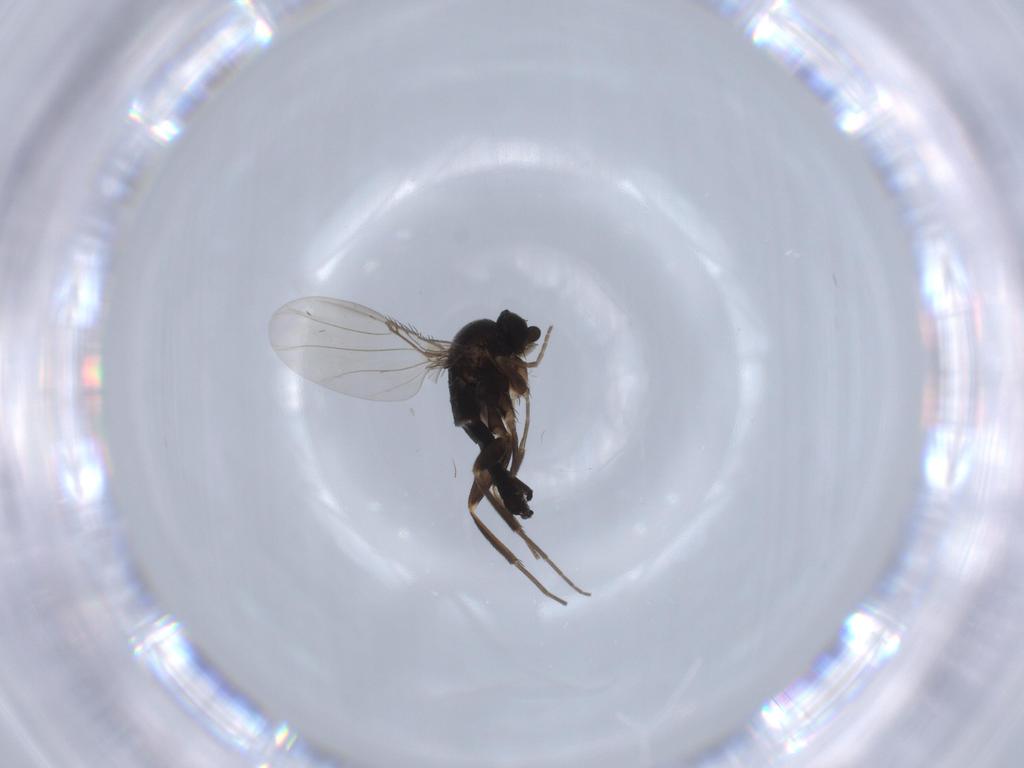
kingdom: Animalia
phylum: Arthropoda
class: Insecta
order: Diptera
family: Phoridae
